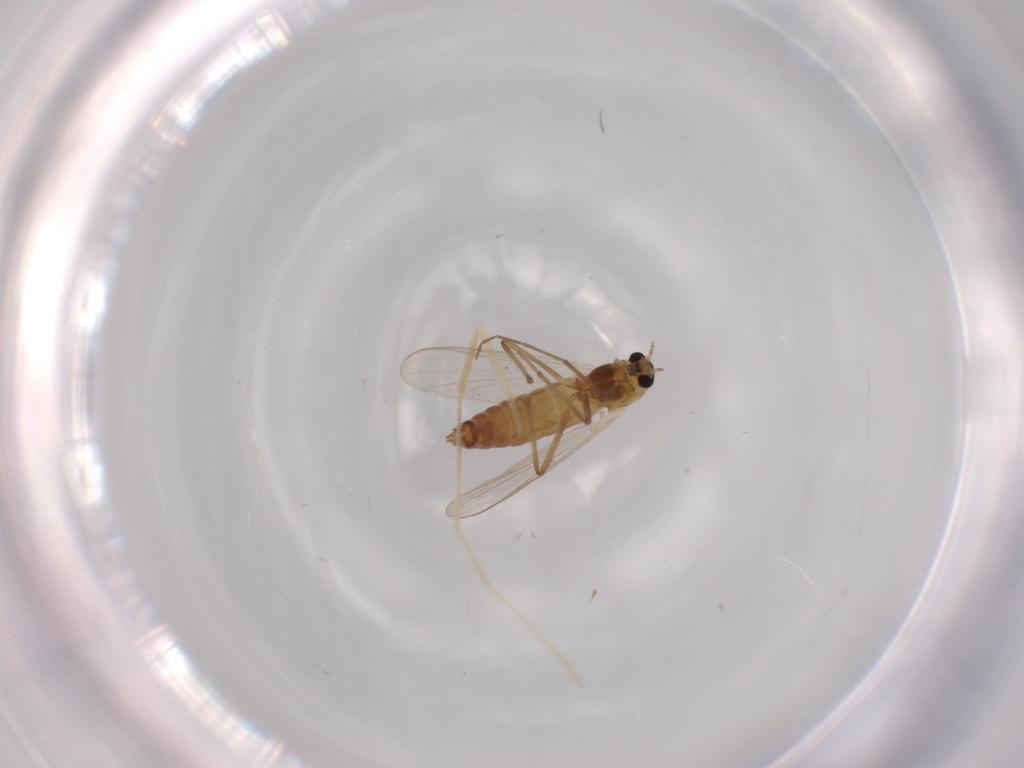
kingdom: Animalia
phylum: Arthropoda
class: Insecta
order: Diptera
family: Chironomidae
